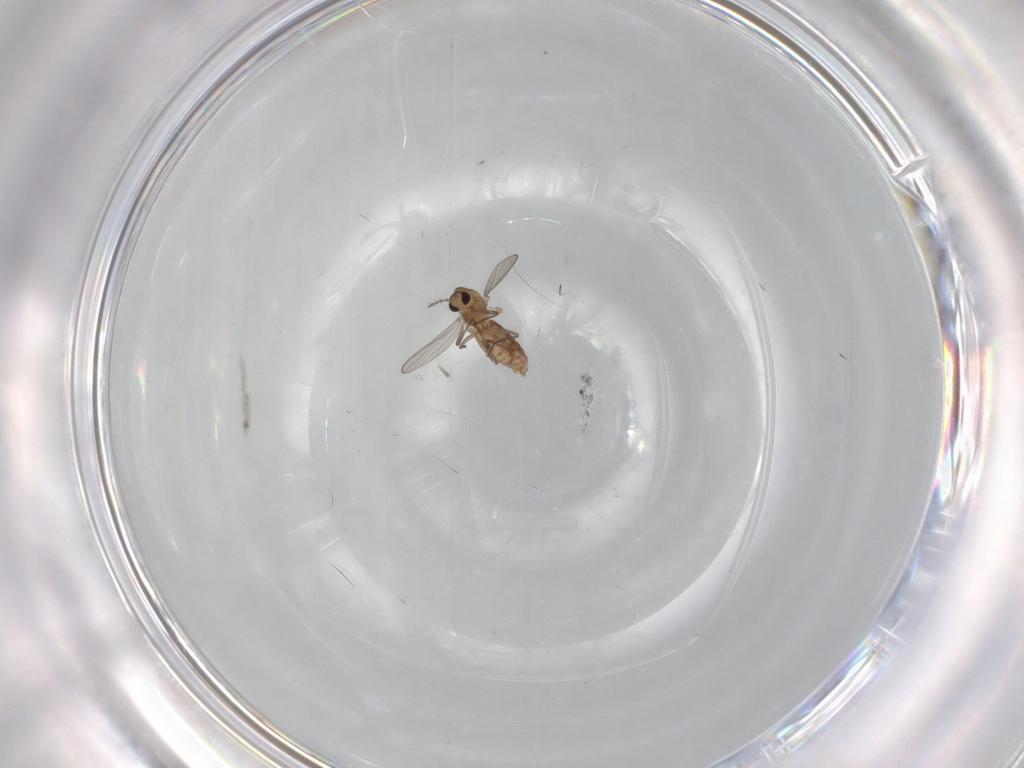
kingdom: Animalia
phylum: Arthropoda
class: Insecta
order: Diptera
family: Chironomidae
